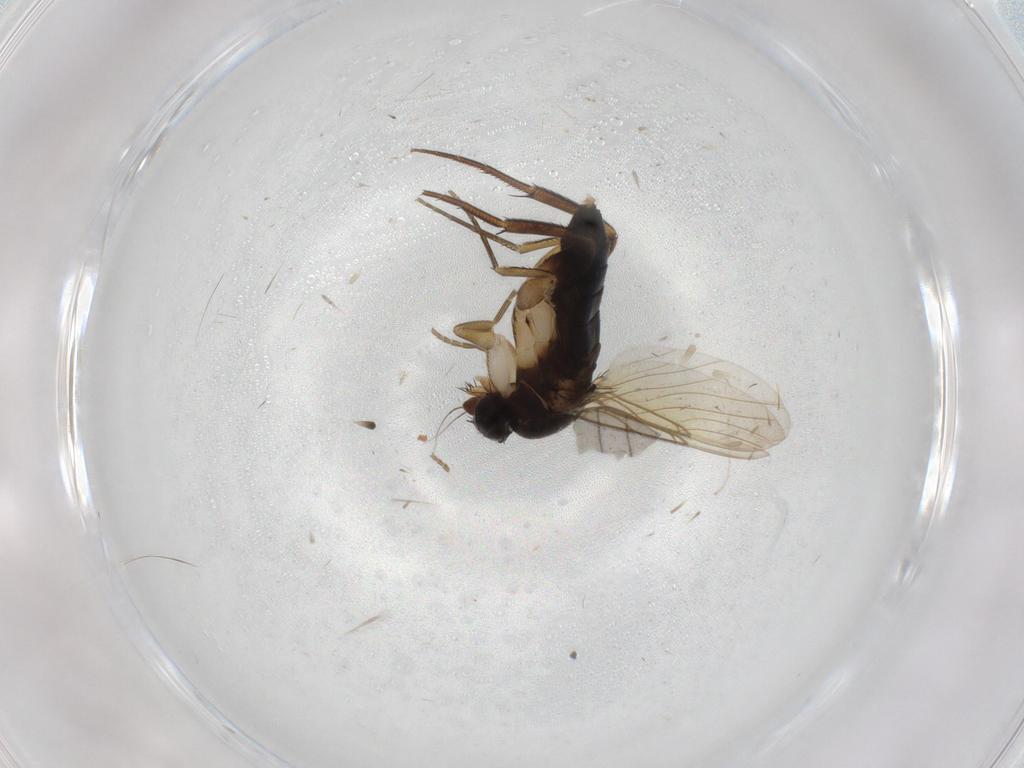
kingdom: Animalia
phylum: Arthropoda
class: Insecta
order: Diptera
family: Phoridae
